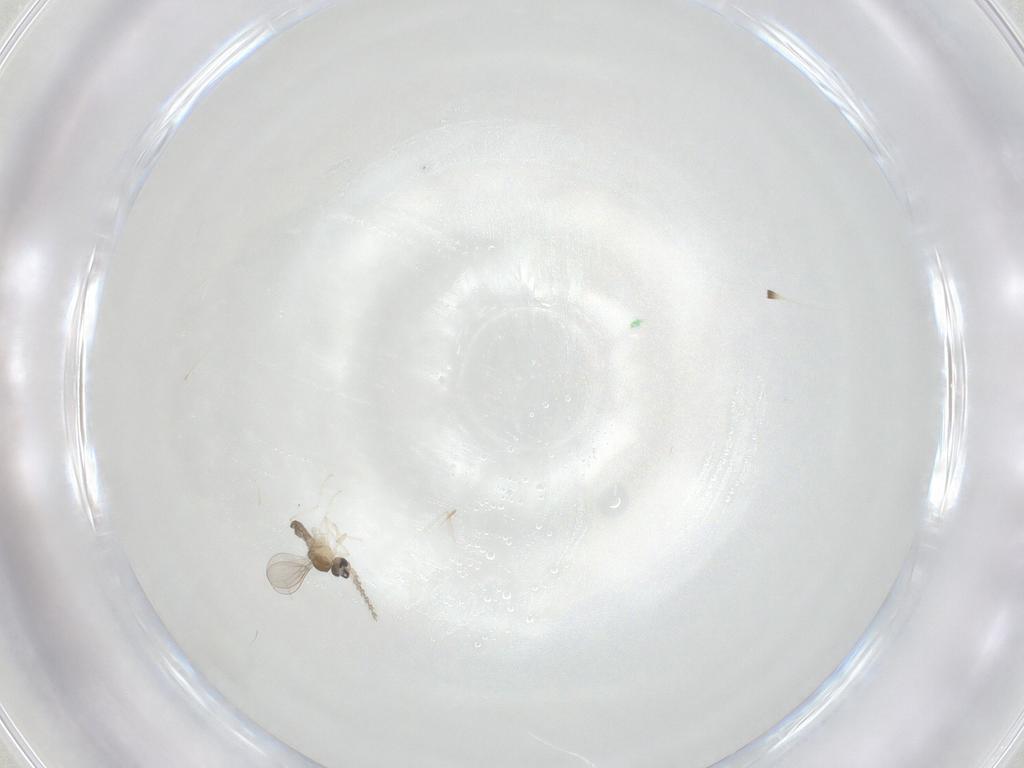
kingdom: Animalia
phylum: Arthropoda
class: Insecta
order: Diptera
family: Cecidomyiidae
